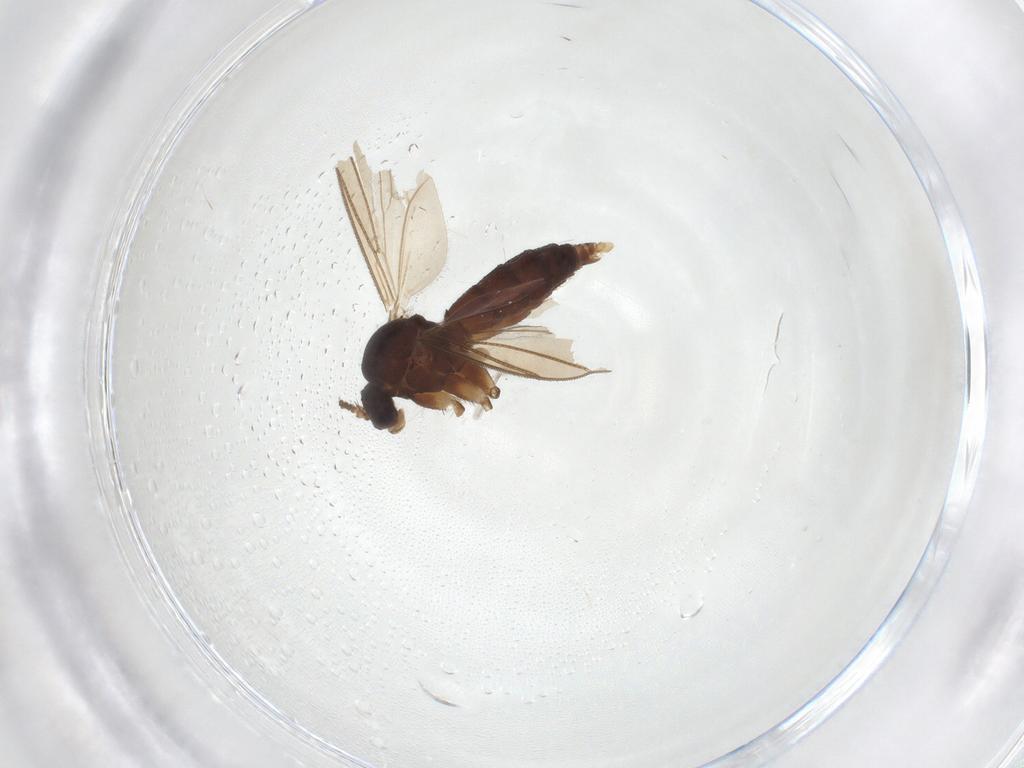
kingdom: Animalia
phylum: Arthropoda
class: Insecta
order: Diptera
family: Mycetophilidae
